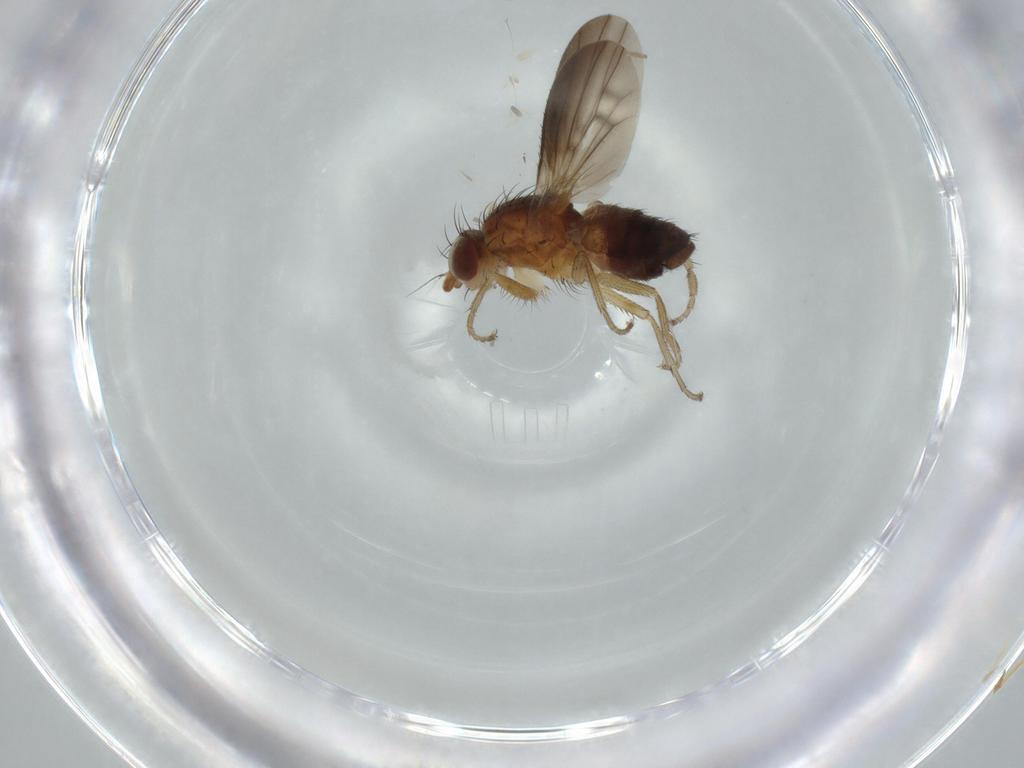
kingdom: Animalia
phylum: Arthropoda
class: Insecta
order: Diptera
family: Heleomyzidae
